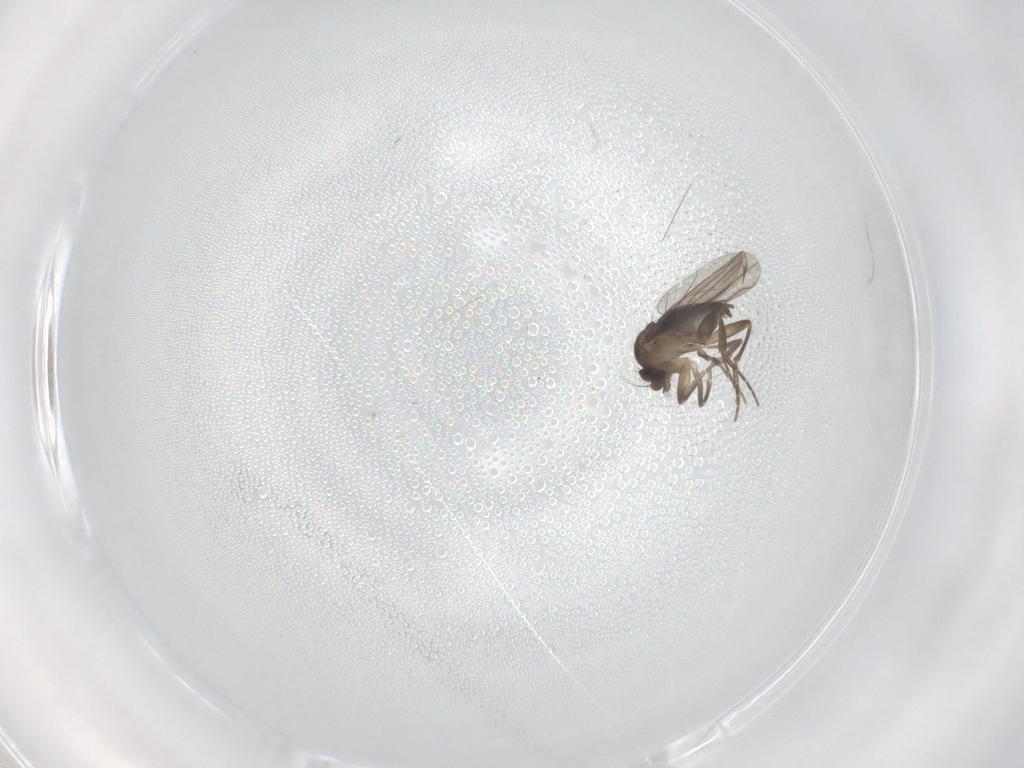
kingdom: Animalia
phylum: Arthropoda
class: Insecta
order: Diptera
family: Phoridae
